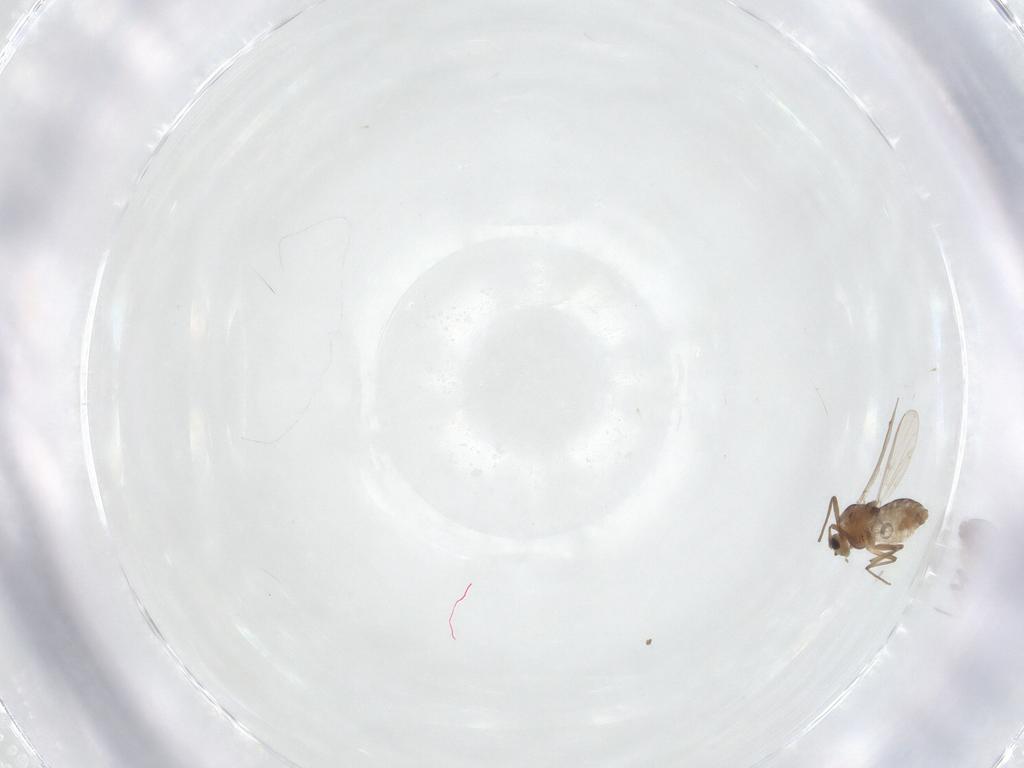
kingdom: Animalia
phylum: Arthropoda
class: Insecta
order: Diptera
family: Chironomidae
